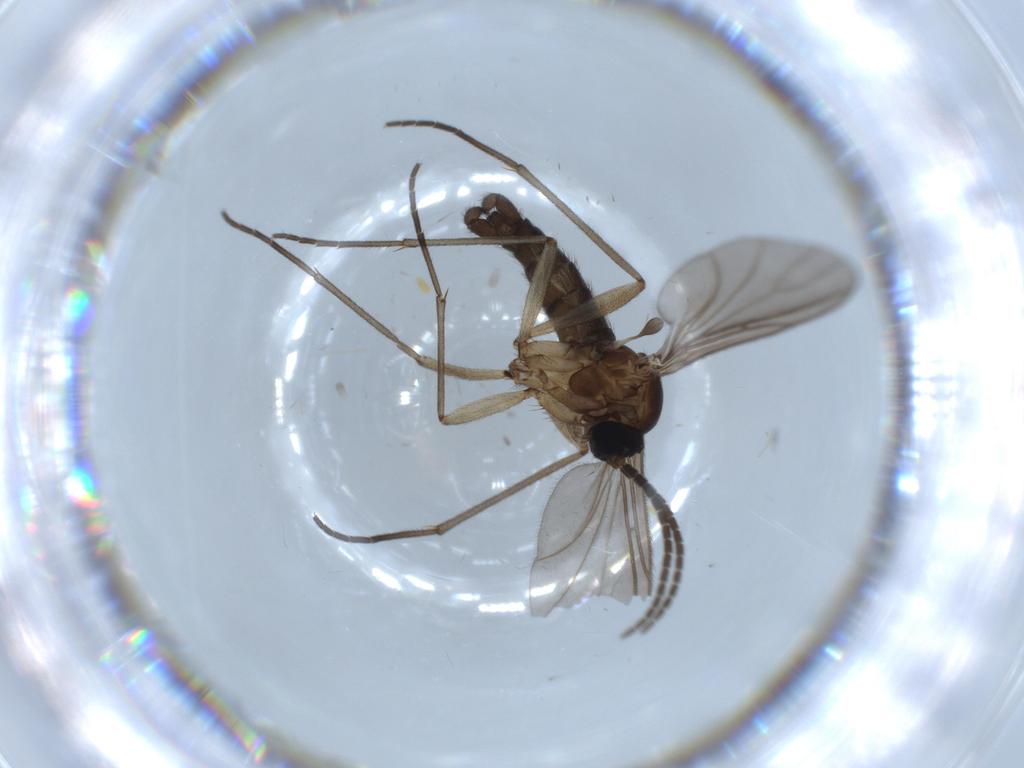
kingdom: Animalia
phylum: Arthropoda
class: Insecta
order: Diptera
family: Sciaridae
